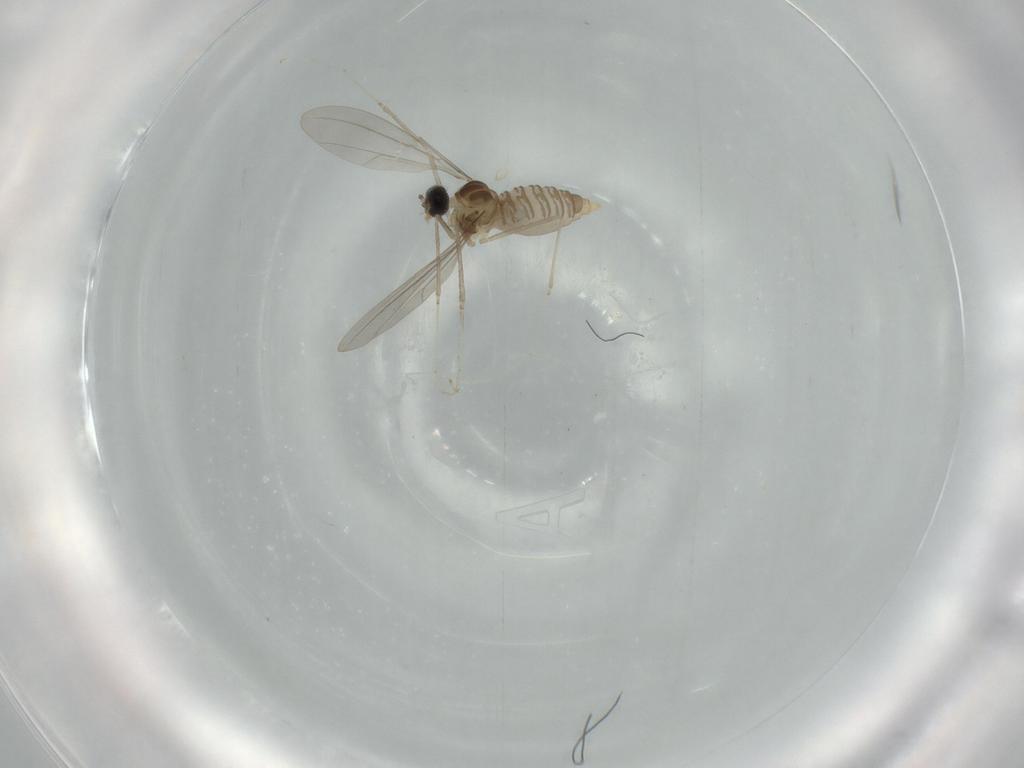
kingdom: Animalia
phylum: Arthropoda
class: Insecta
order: Diptera
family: Cecidomyiidae
